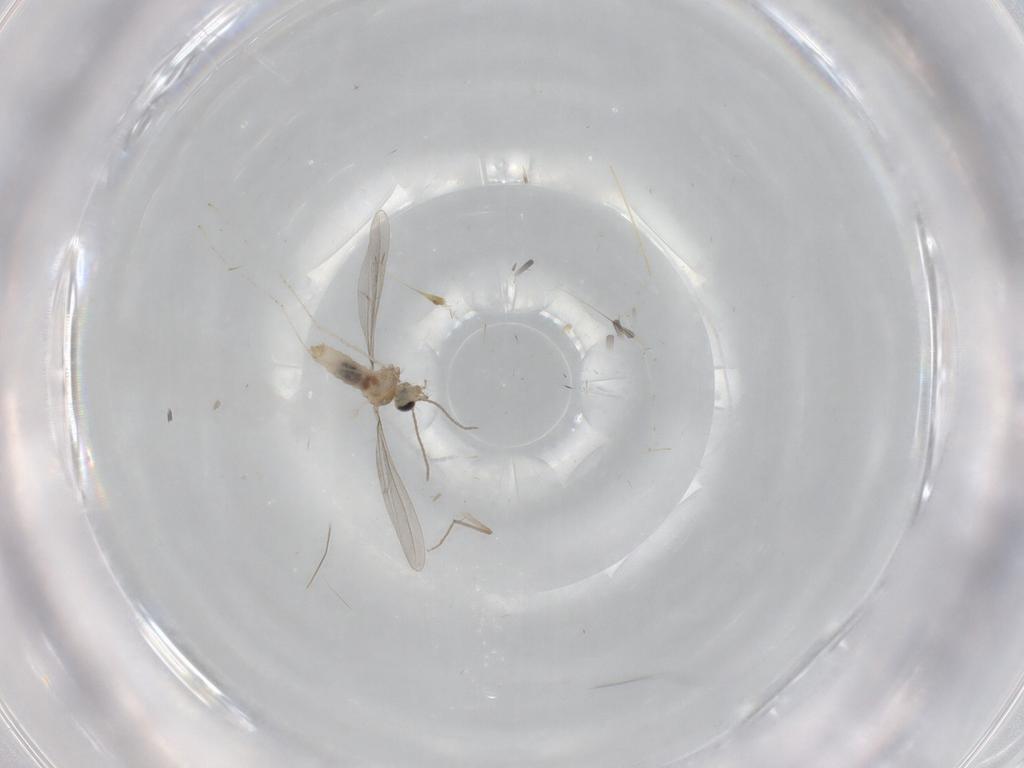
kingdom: Animalia
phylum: Arthropoda
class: Insecta
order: Diptera
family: Cecidomyiidae
